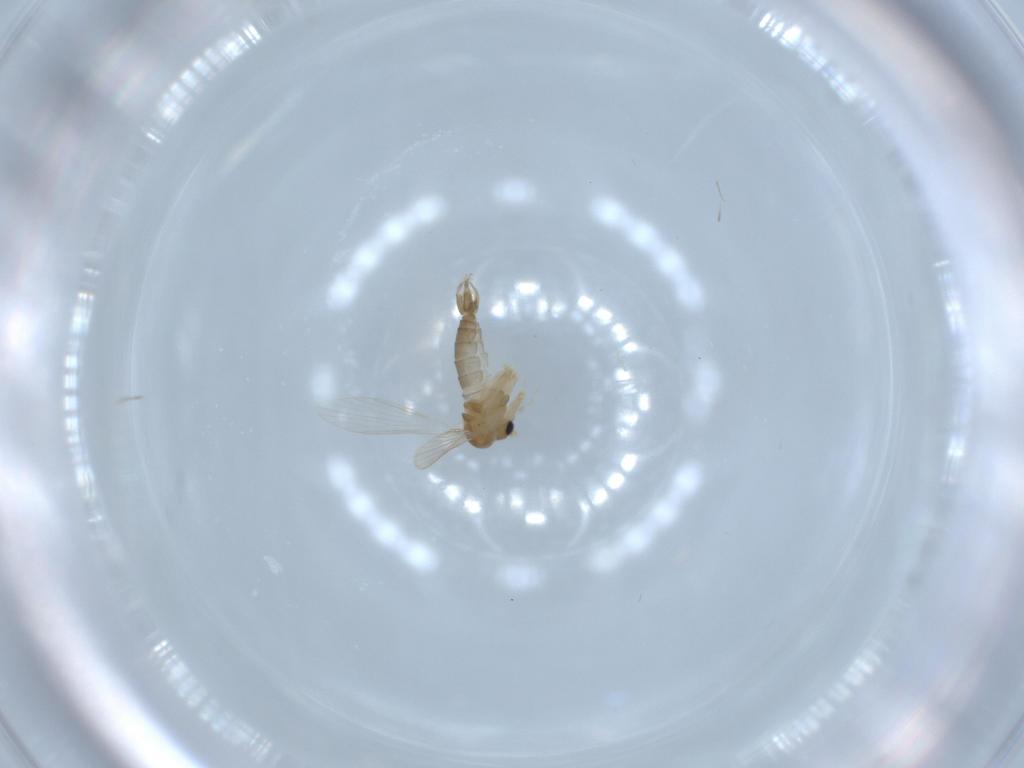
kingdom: Animalia
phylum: Arthropoda
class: Insecta
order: Diptera
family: Psychodidae
